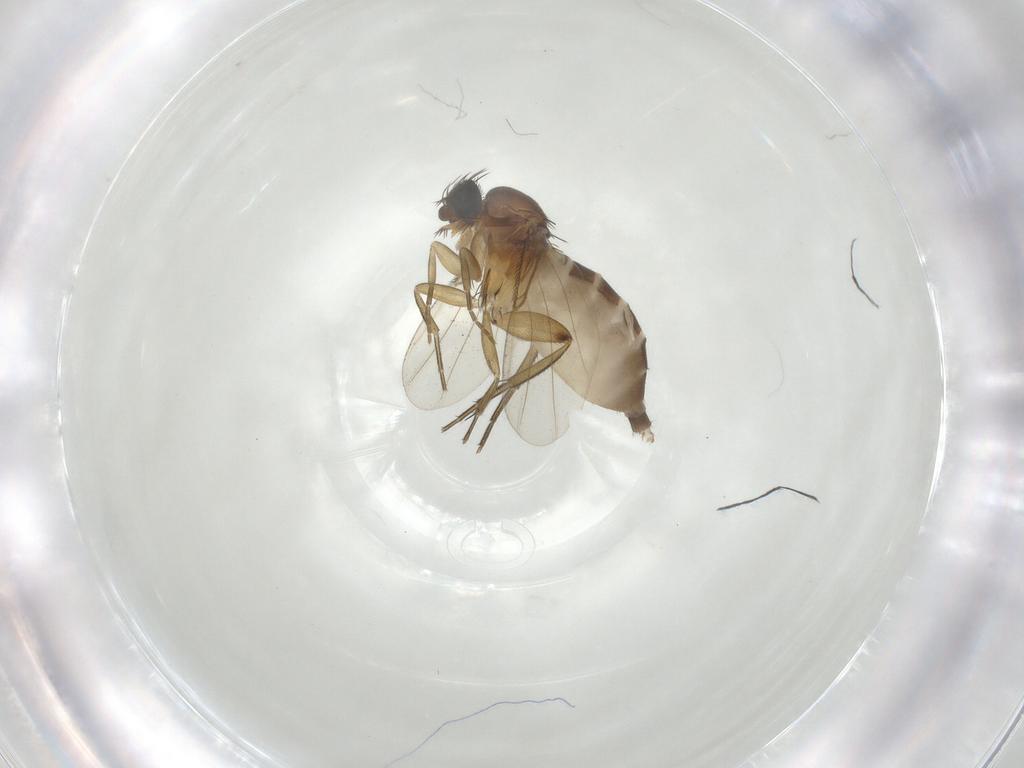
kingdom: Animalia
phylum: Arthropoda
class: Insecta
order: Diptera
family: Phoridae
